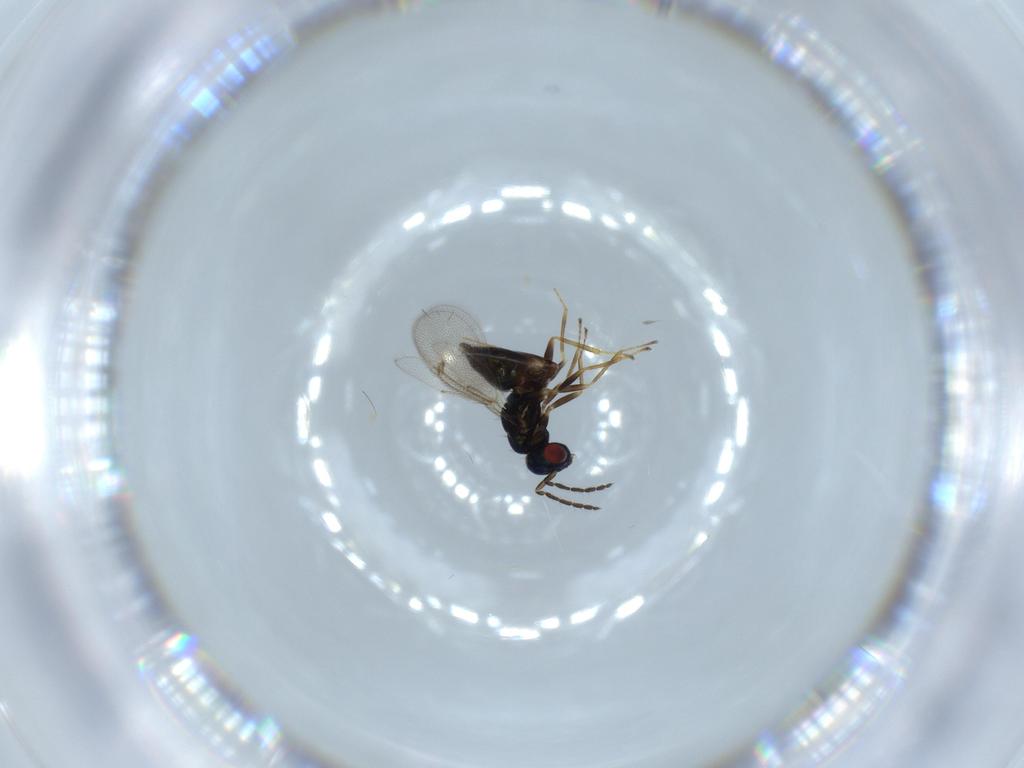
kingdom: Animalia
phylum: Arthropoda
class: Insecta
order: Hymenoptera
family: Eulophidae
